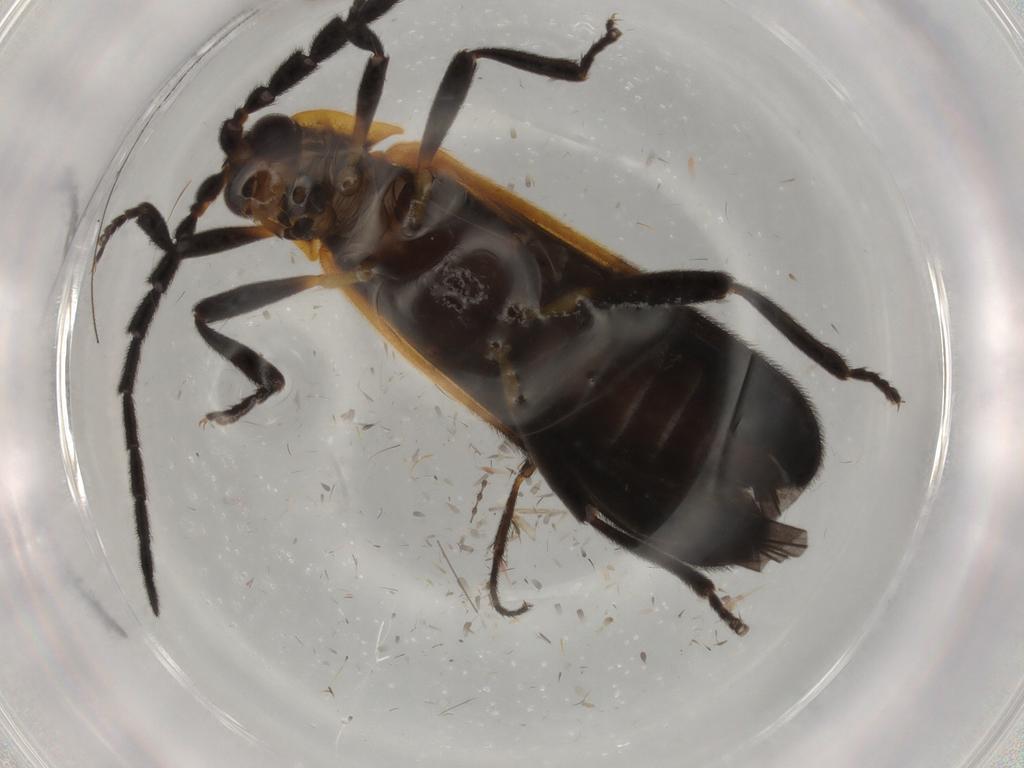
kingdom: Animalia
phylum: Arthropoda
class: Insecta
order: Coleoptera
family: Lycidae
